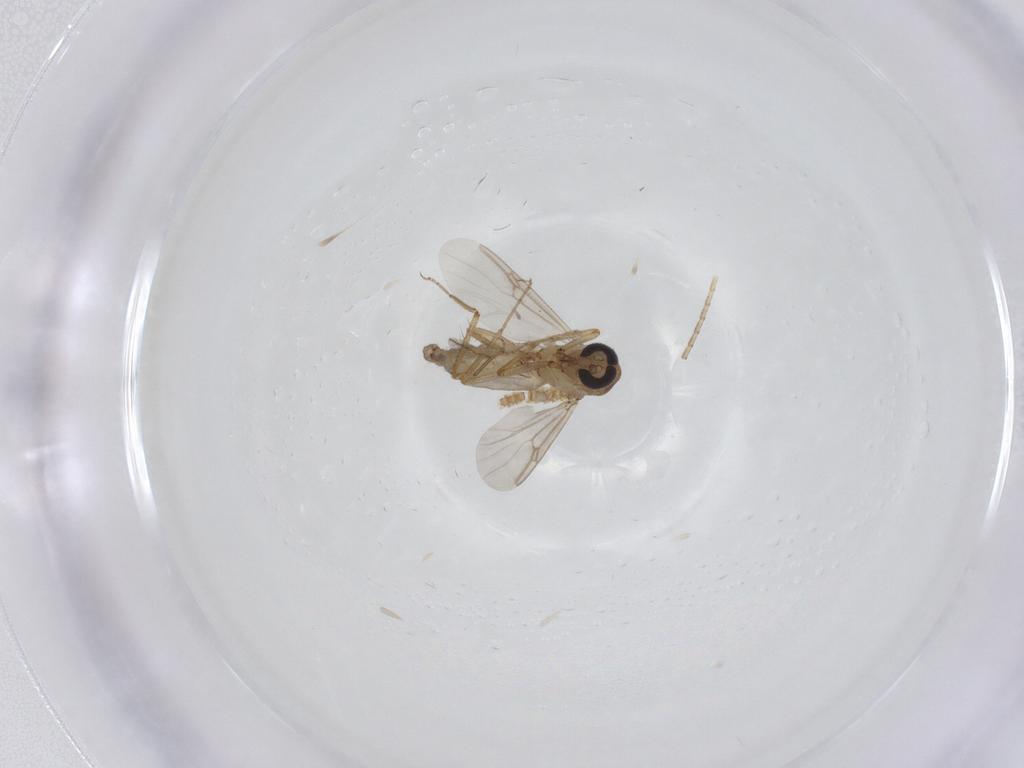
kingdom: Animalia
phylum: Arthropoda
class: Insecta
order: Diptera
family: Ceratopogonidae
